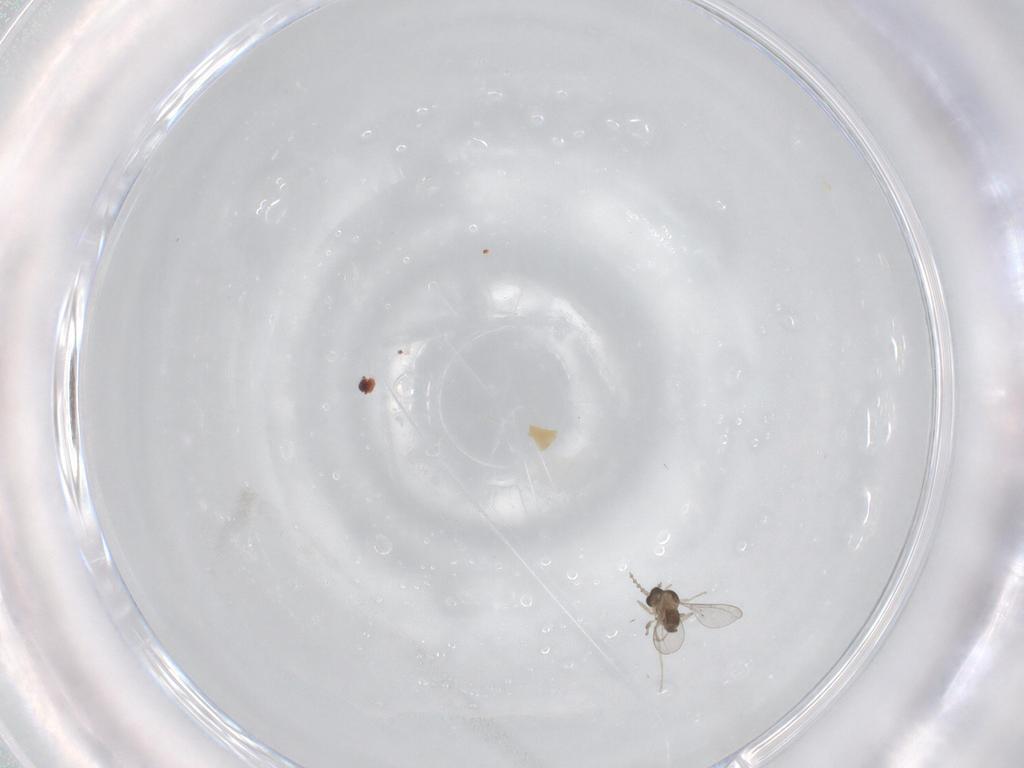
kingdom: Animalia
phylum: Arthropoda
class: Insecta
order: Diptera
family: Cecidomyiidae
